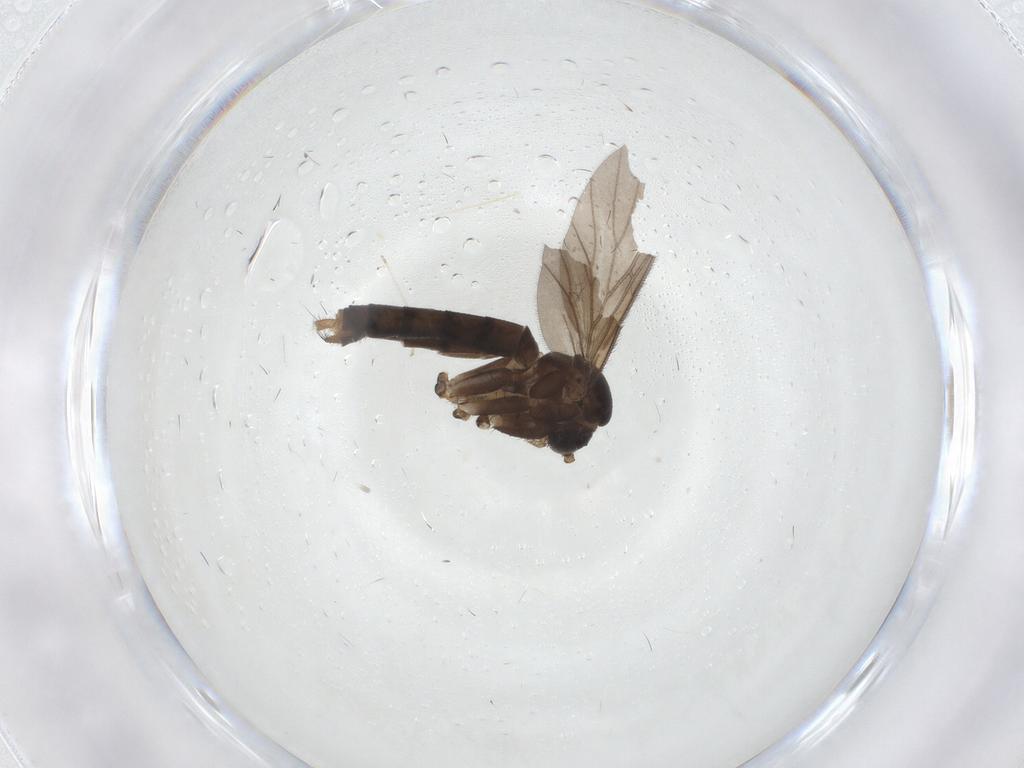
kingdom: Animalia
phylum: Arthropoda
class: Insecta
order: Diptera
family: Mycetophilidae
